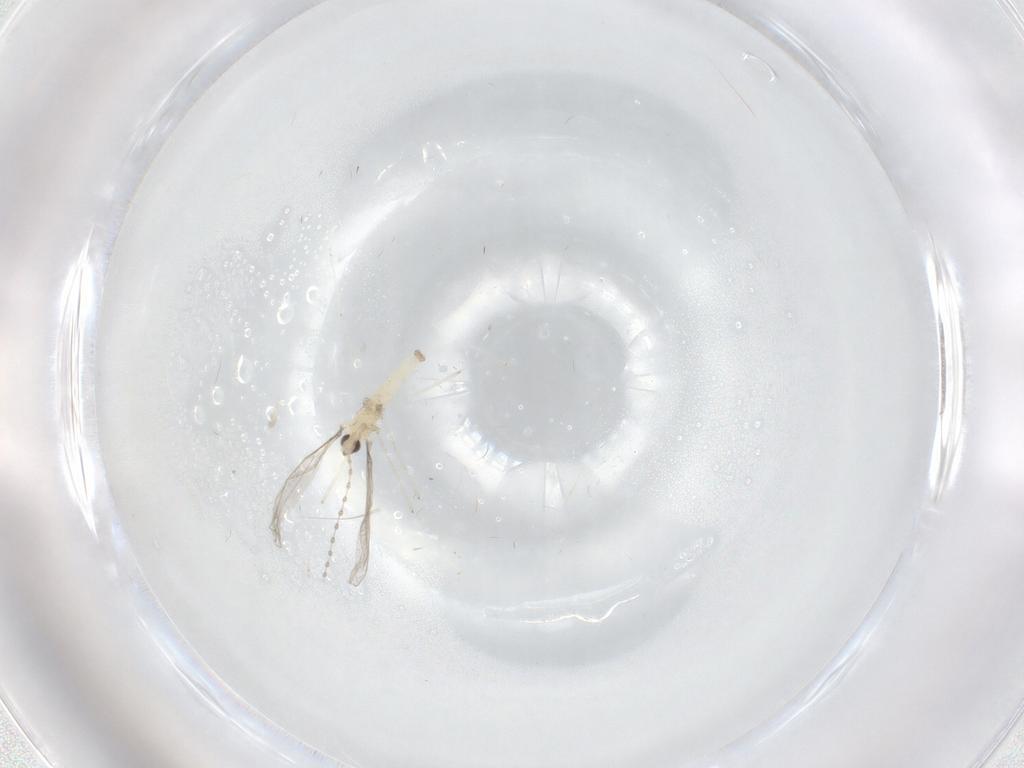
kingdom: Animalia
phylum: Arthropoda
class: Insecta
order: Diptera
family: Cecidomyiidae
